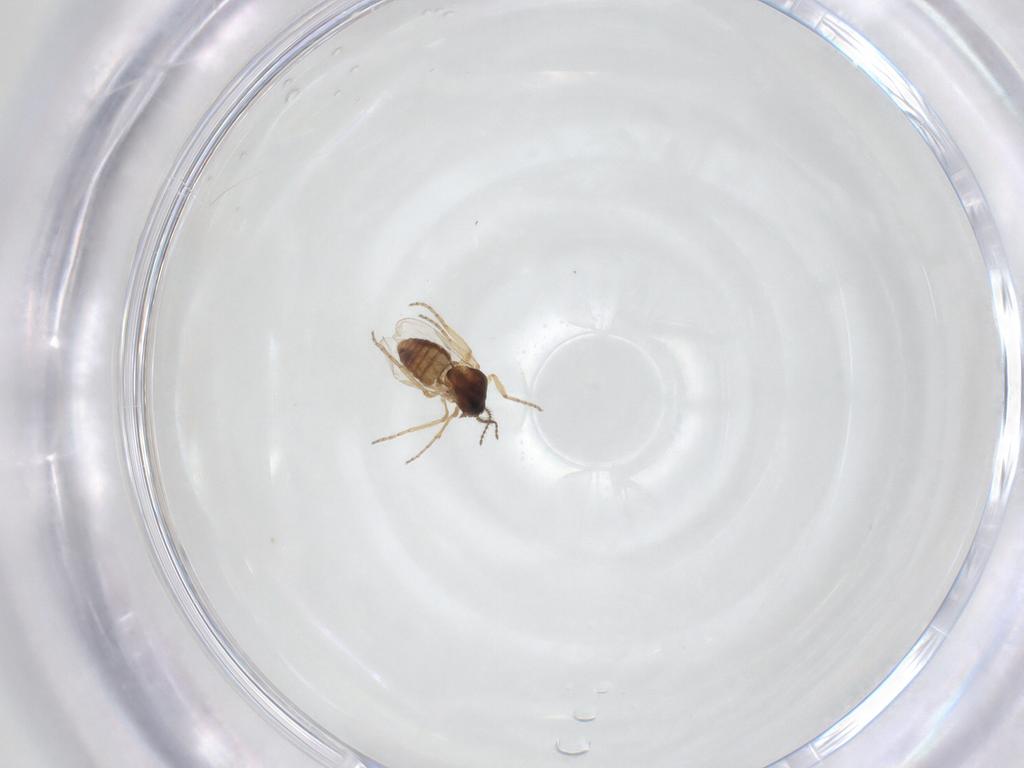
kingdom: Animalia
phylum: Arthropoda
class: Insecta
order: Diptera
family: Ceratopogonidae
